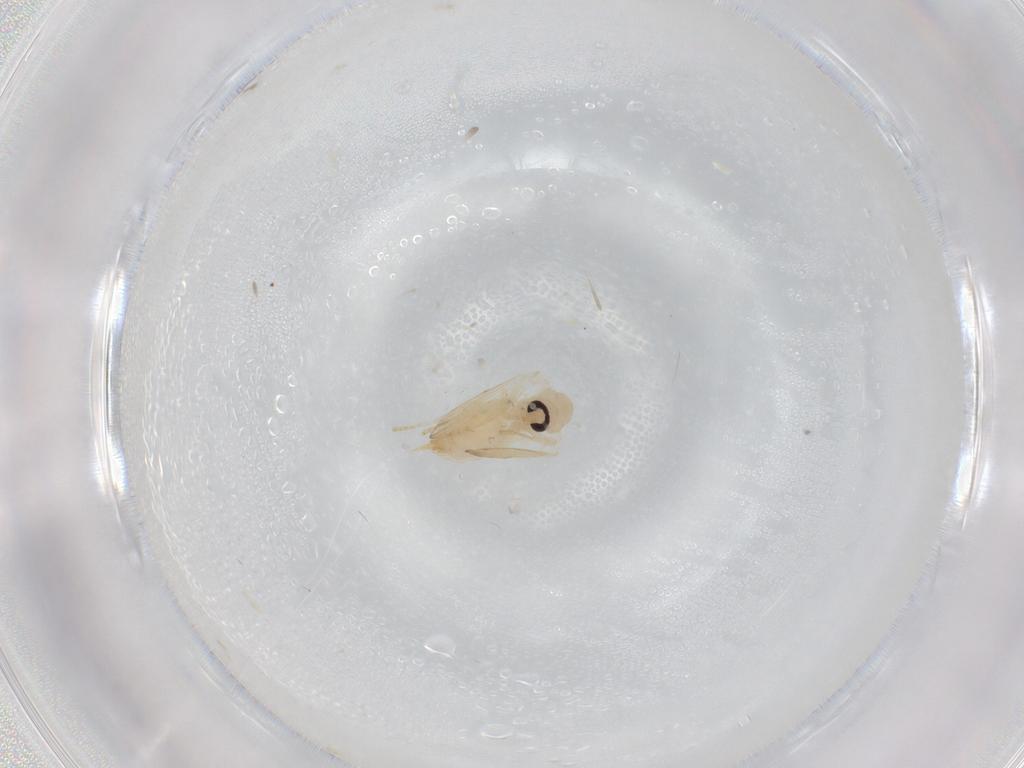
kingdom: Animalia
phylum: Arthropoda
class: Insecta
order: Diptera
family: Psychodidae
